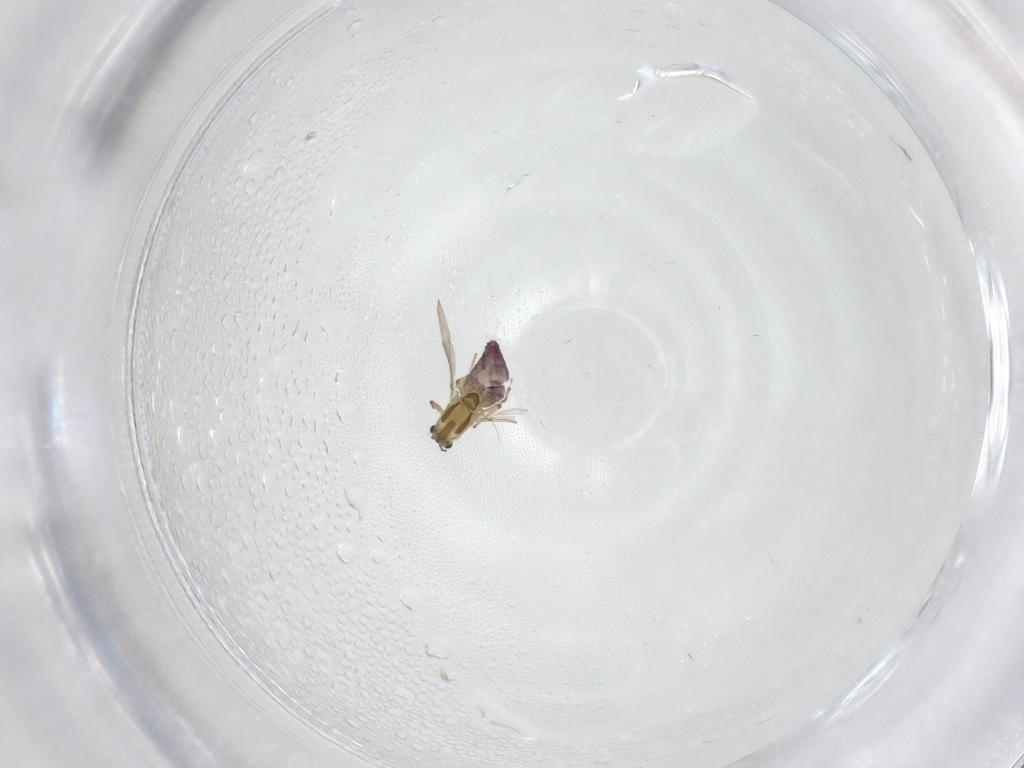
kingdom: Animalia
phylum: Arthropoda
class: Insecta
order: Diptera
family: Chironomidae
